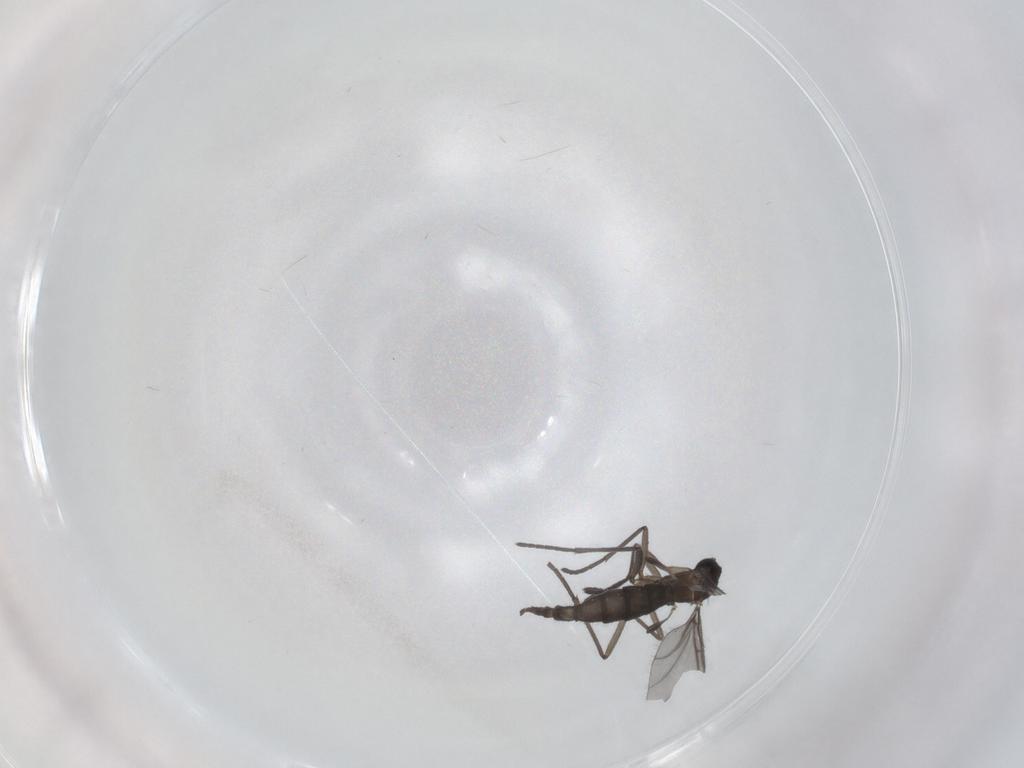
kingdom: Animalia
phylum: Arthropoda
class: Insecta
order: Diptera
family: Sciaridae
